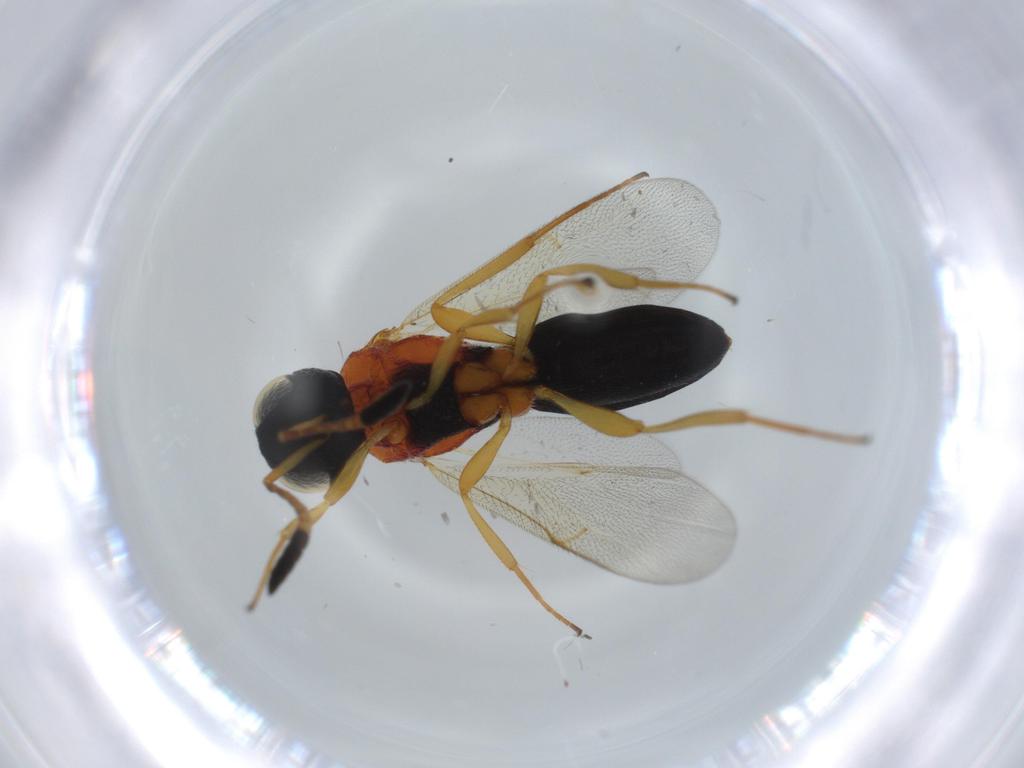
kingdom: Animalia
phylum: Arthropoda
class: Insecta
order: Hymenoptera
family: Scelionidae
